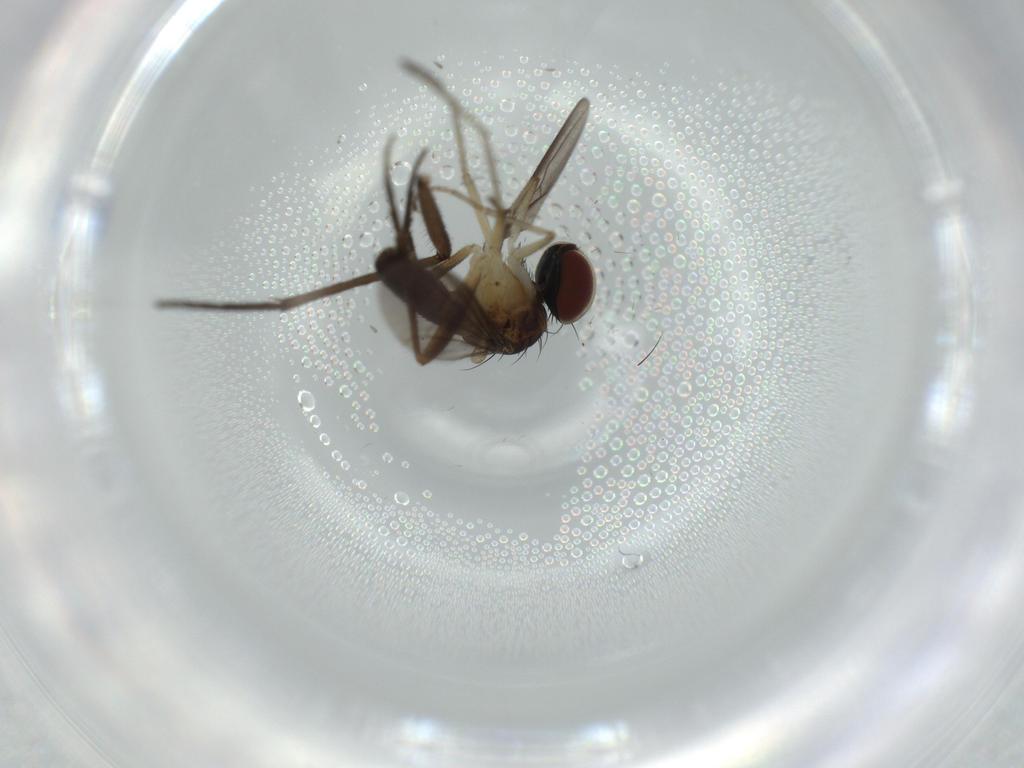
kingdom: Animalia
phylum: Arthropoda
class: Insecta
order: Diptera
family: Dolichopodidae
